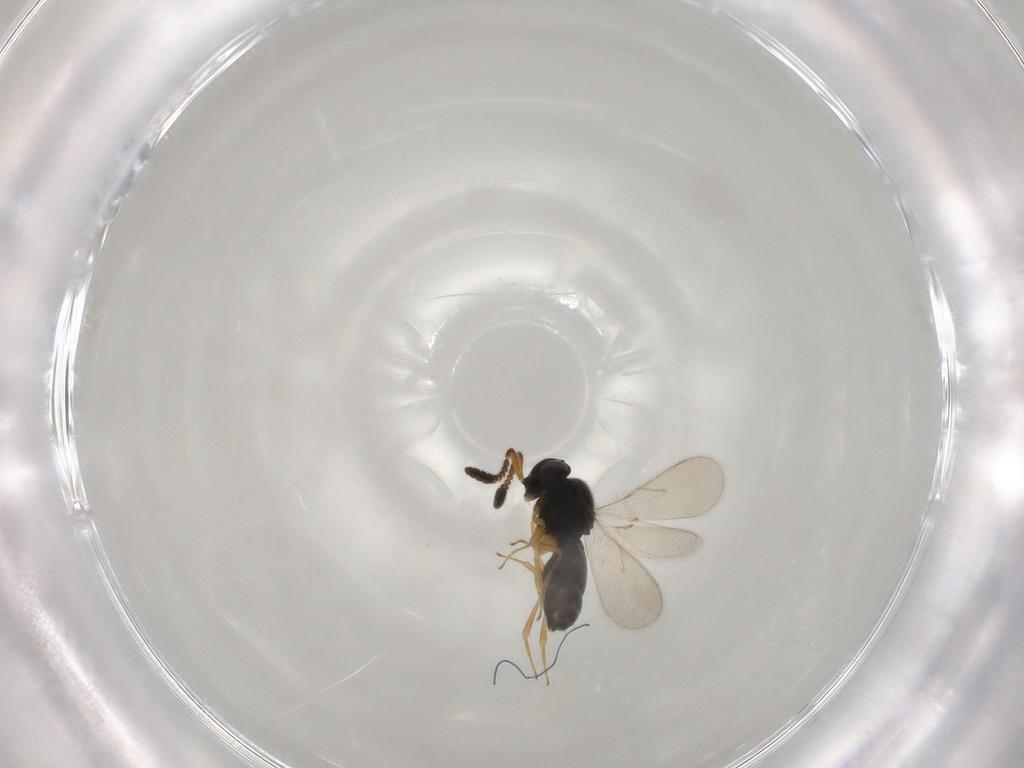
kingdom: Animalia
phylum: Arthropoda
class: Insecta
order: Hymenoptera
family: Scelionidae
